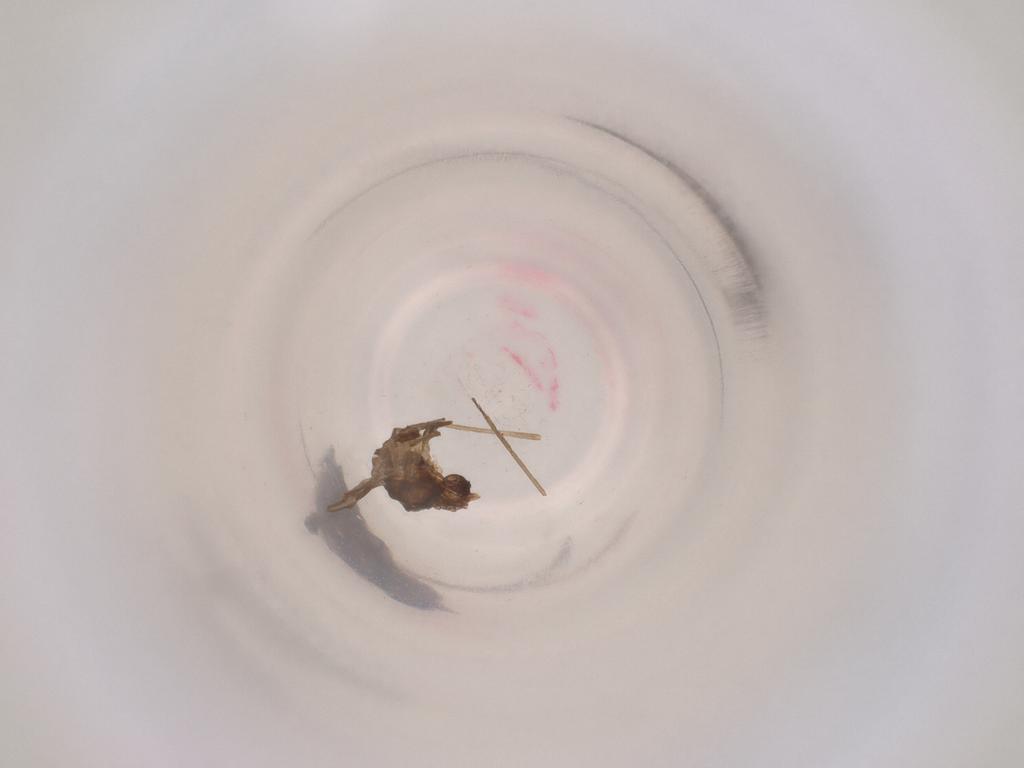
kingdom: Animalia
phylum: Arthropoda
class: Insecta
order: Diptera
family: Cecidomyiidae
